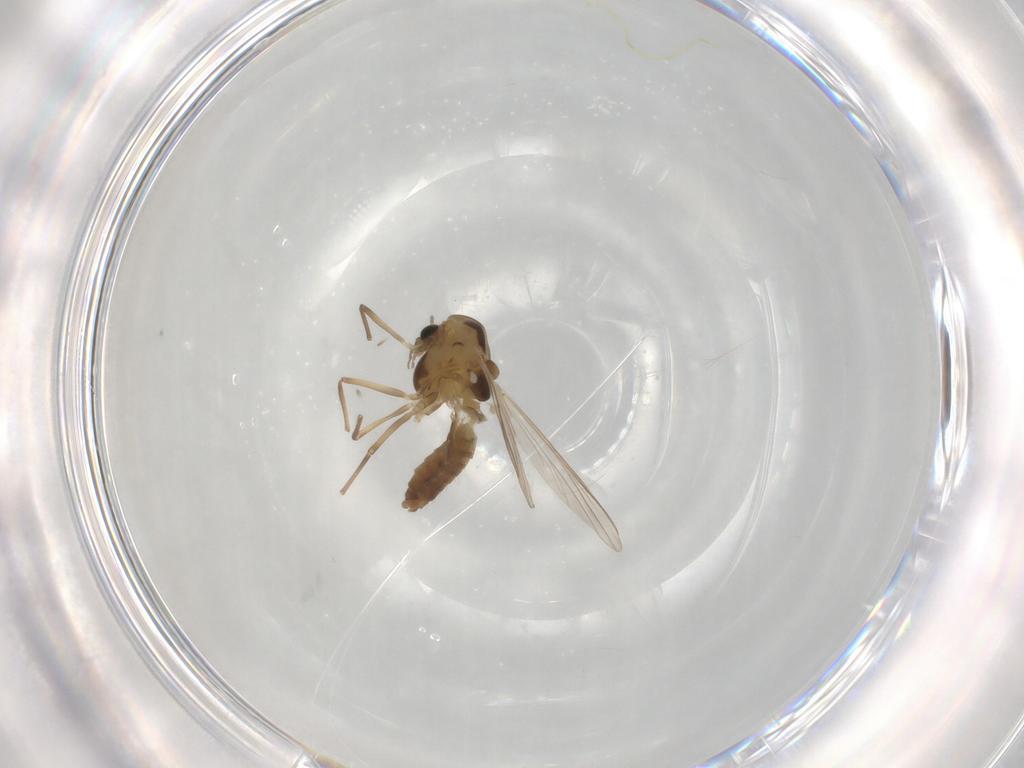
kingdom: Animalia
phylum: Arthropoda
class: Insecta
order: Diptera
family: Chironomidae
